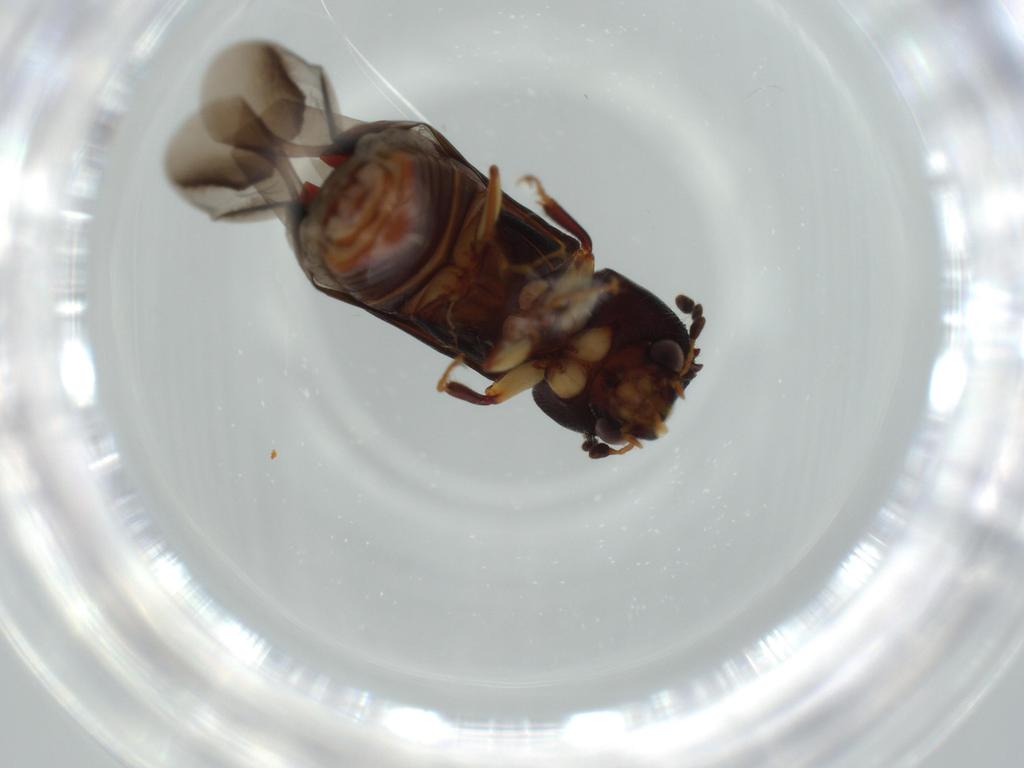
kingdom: Animalia
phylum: Arthropoda
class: Insecta
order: Coleoptera
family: Bostrichidae
